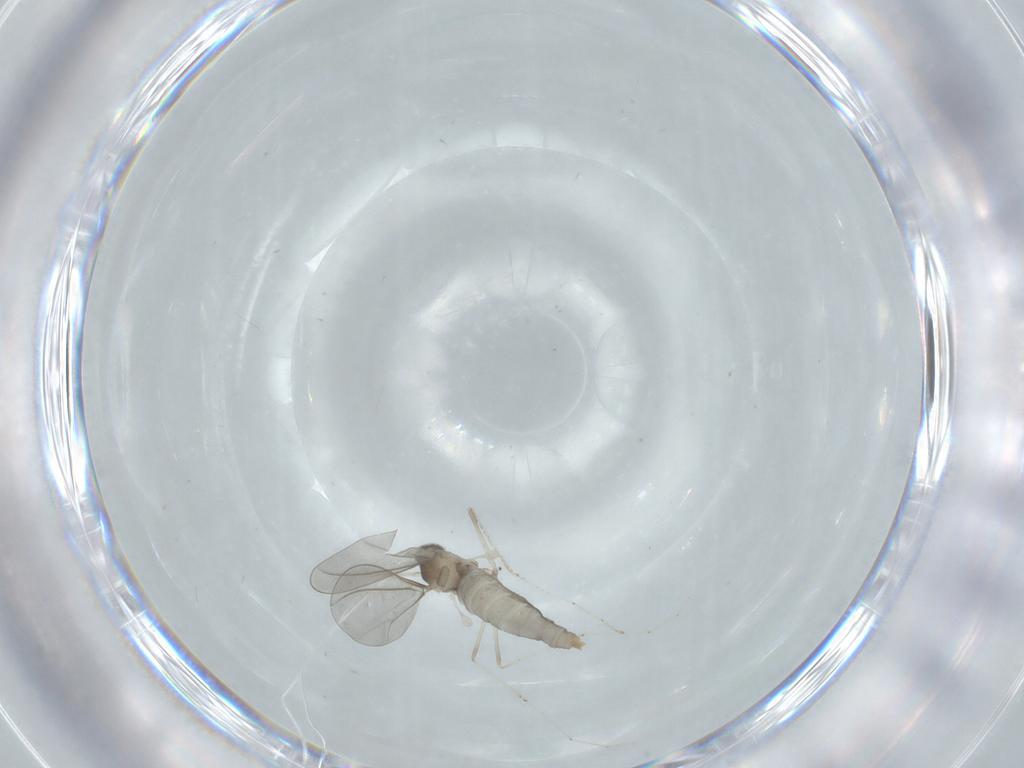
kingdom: Animalia
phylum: Arthropoda
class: Insecta
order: Diptera
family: Cecidomyiidae
